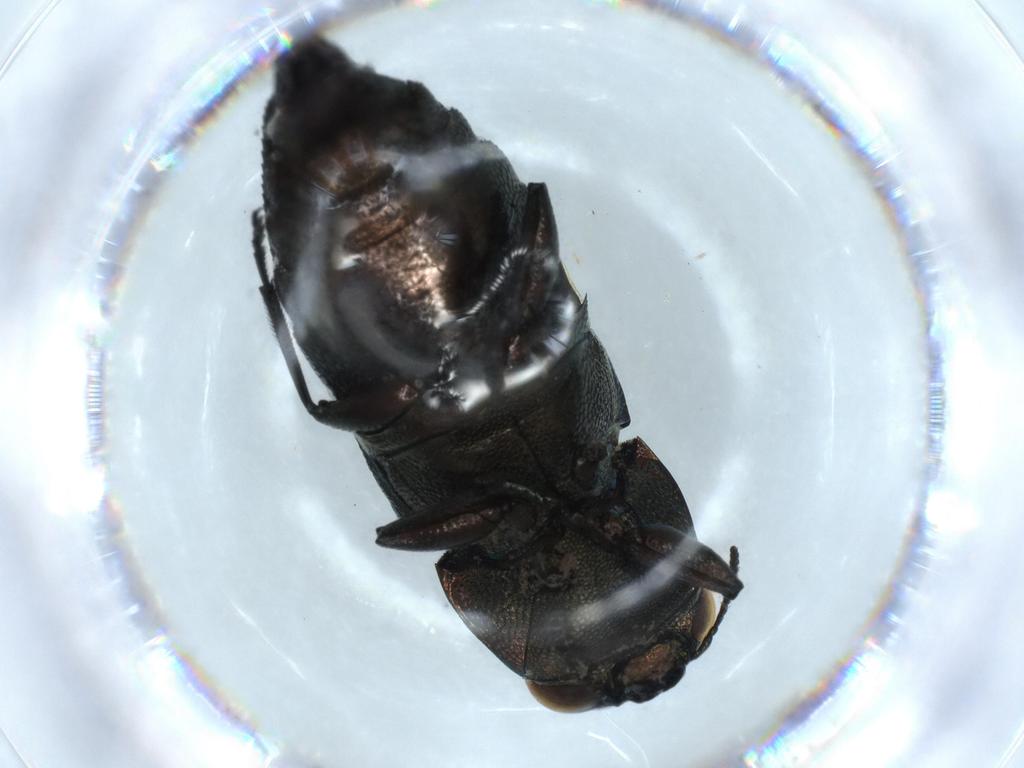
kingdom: Animalia
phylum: Arthropoda
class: Insecta
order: Coleoptera
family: Buprestidae
